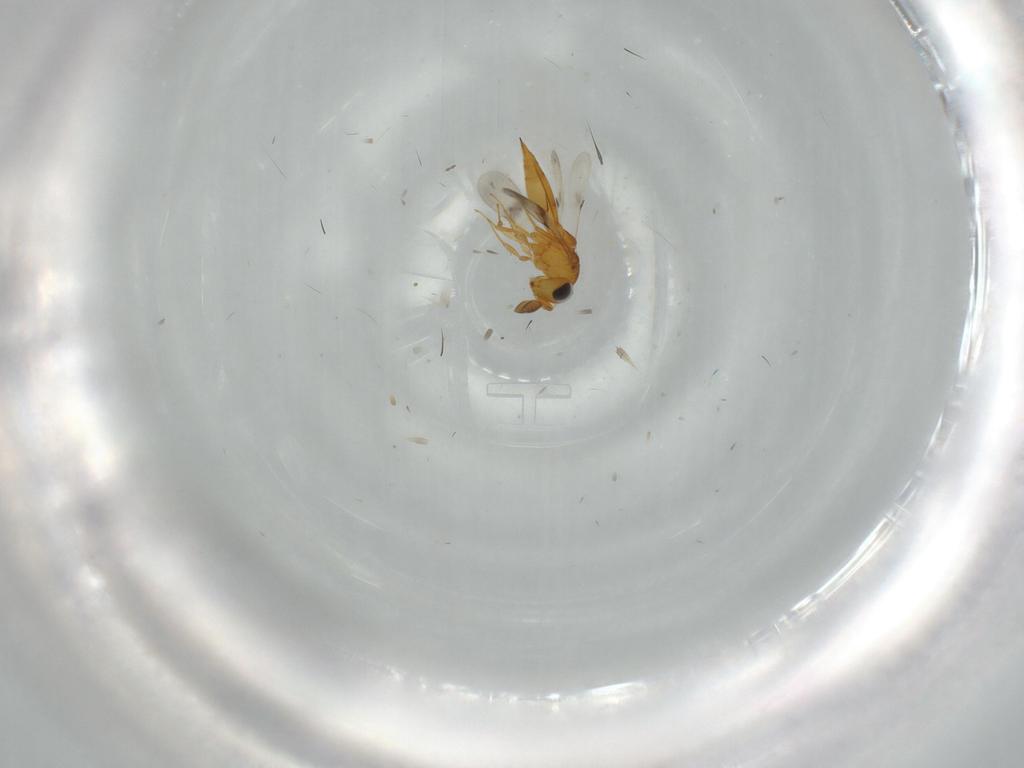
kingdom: Animalia
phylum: Arthropoda
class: Insecta
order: Hymenoptera
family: Scelionidae
